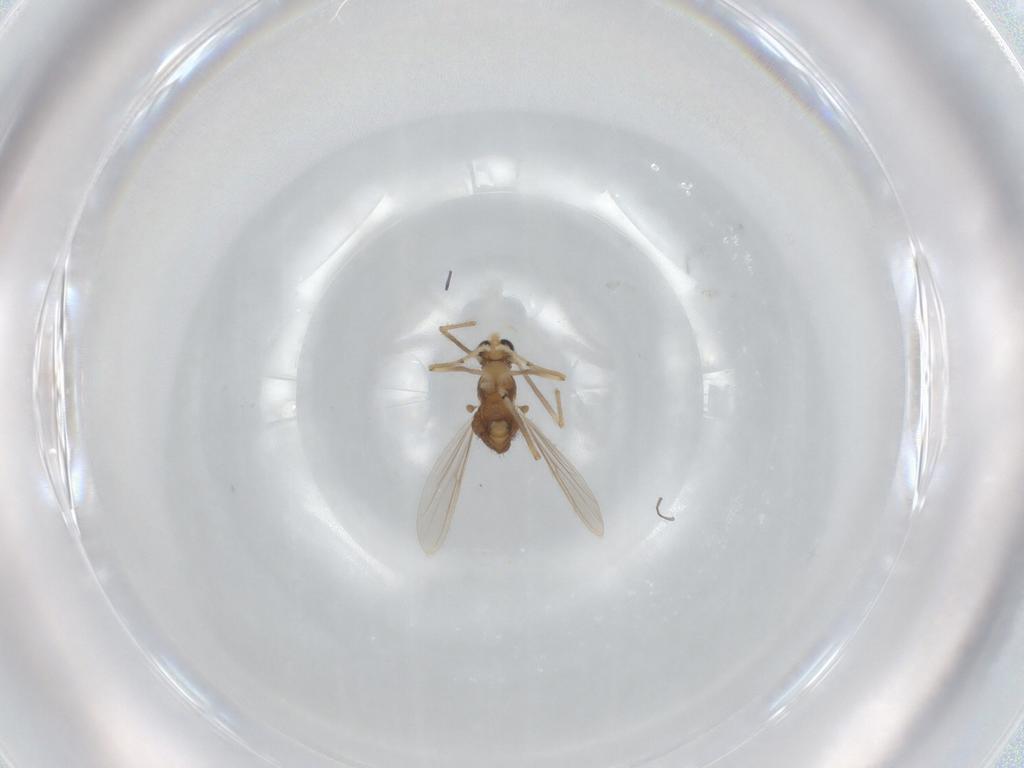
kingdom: Animalia
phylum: Arthropoda
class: Insecta
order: Diptera
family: Chironomidae
